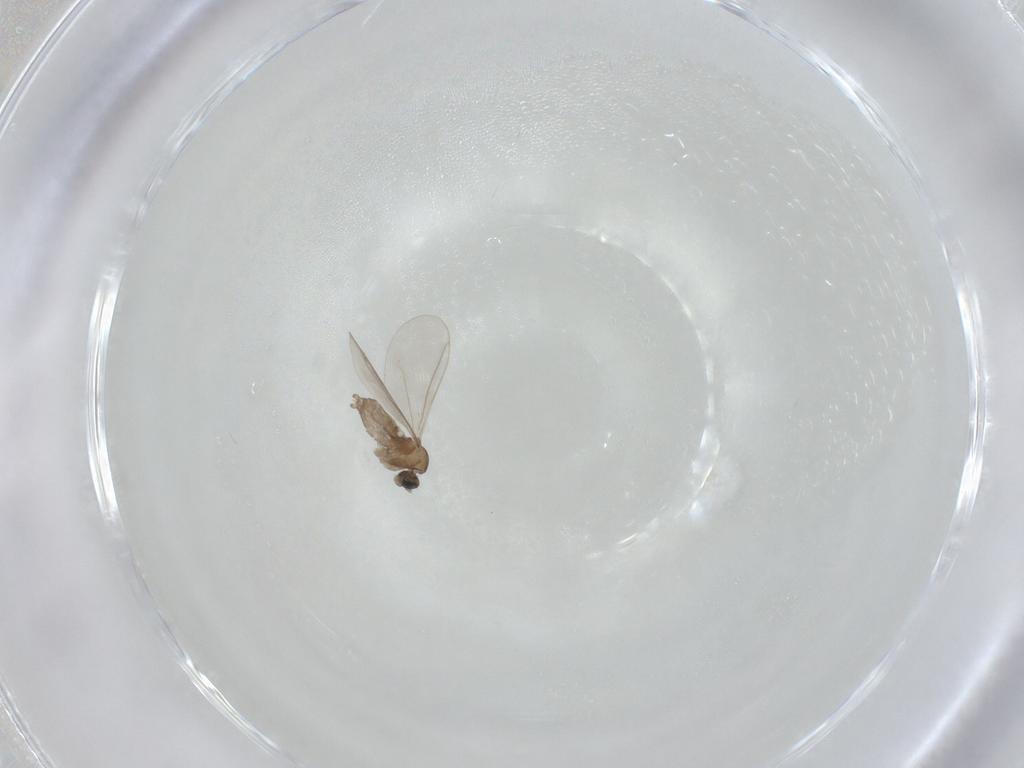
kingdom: Animalia
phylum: Arthropoda
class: Insecta
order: Diptera
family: Cecidomyiidae
